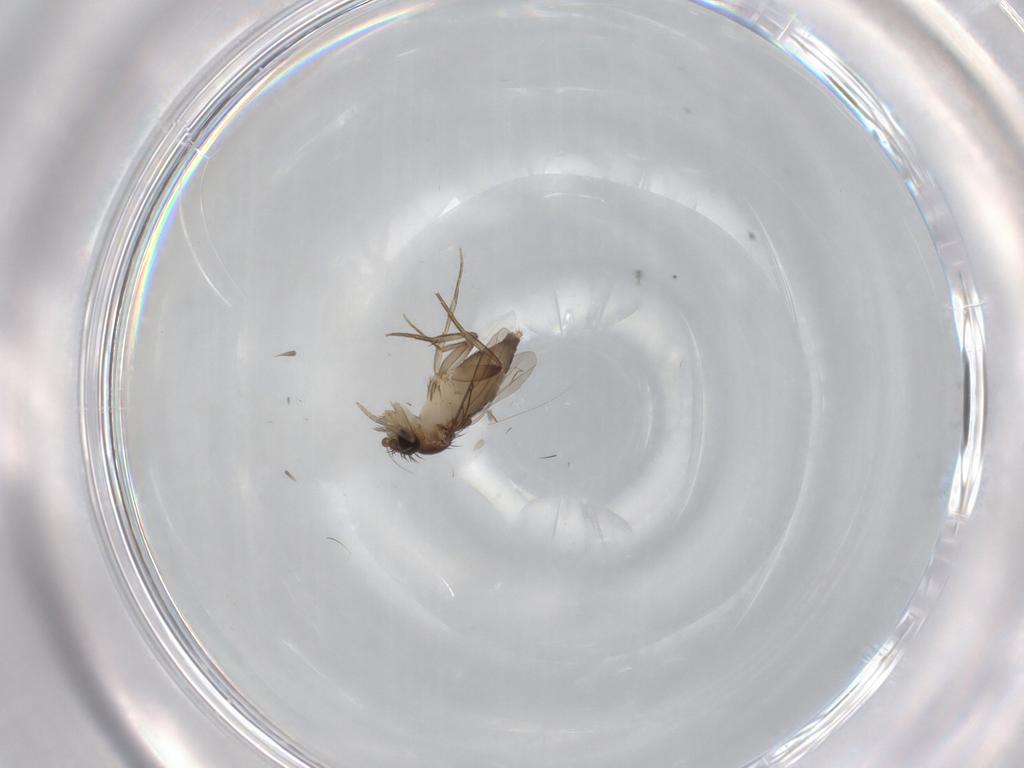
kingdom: Animalia
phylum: Arthropoda
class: Insecta
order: Diptera
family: Phoridae
